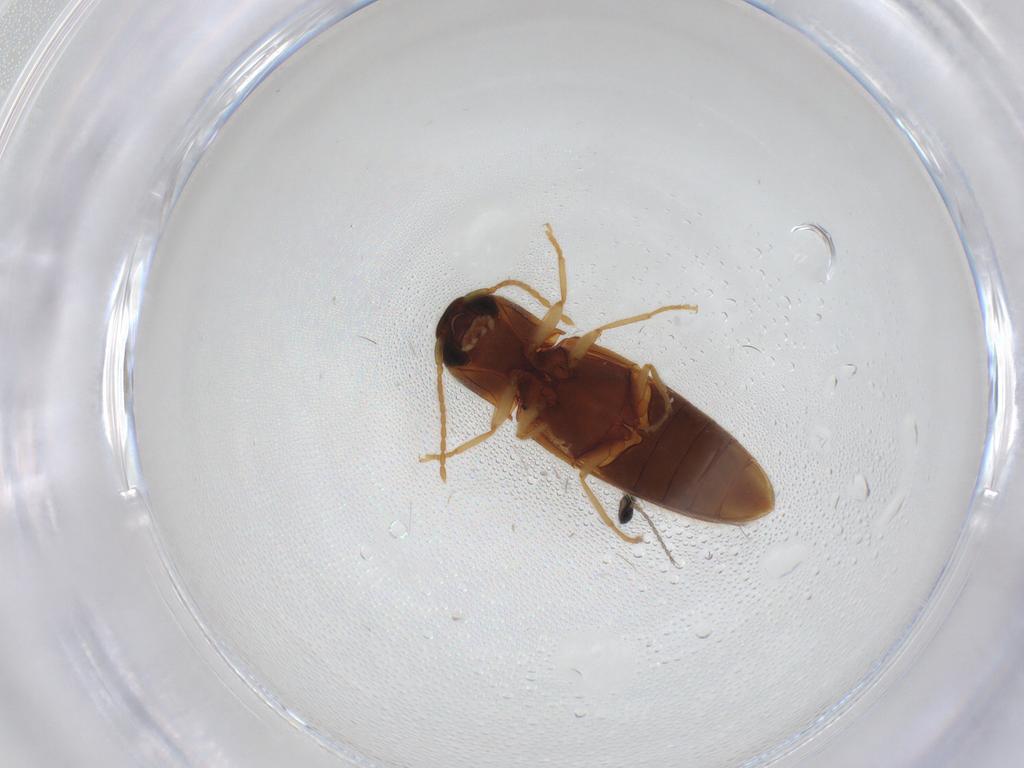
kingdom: Animalia
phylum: Arthropoda
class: Insecta
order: Coleoptera
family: Elateridae
